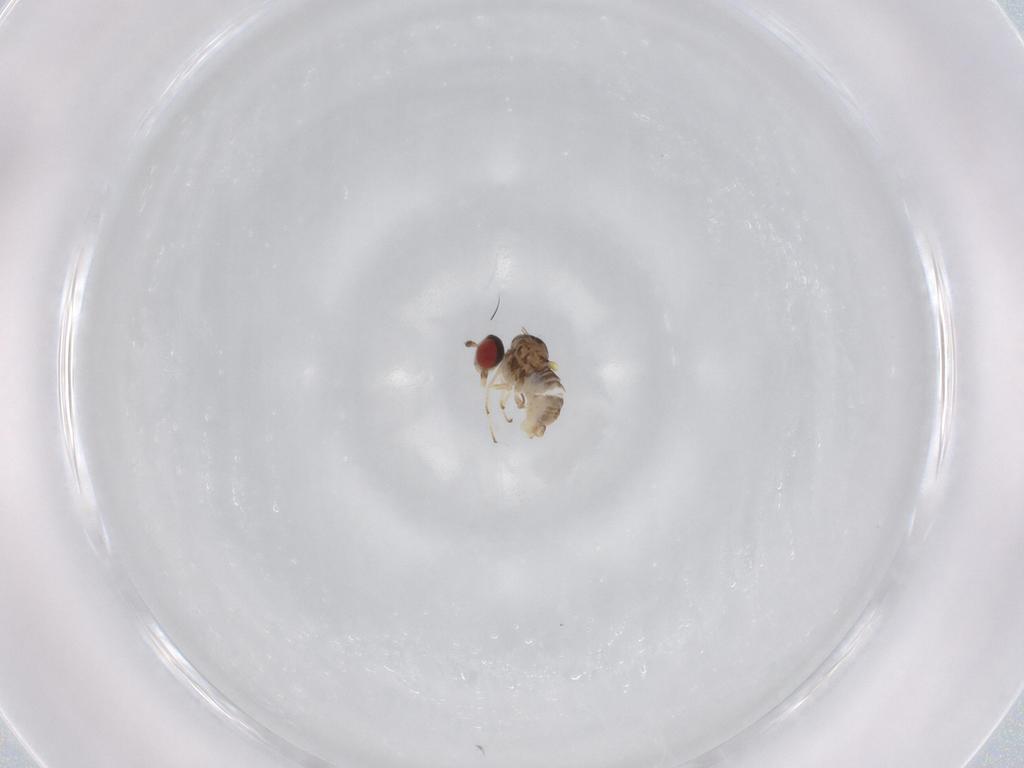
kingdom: Animalia
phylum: Arthropoda
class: Insecta
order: Diptera
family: Bombyliidae
